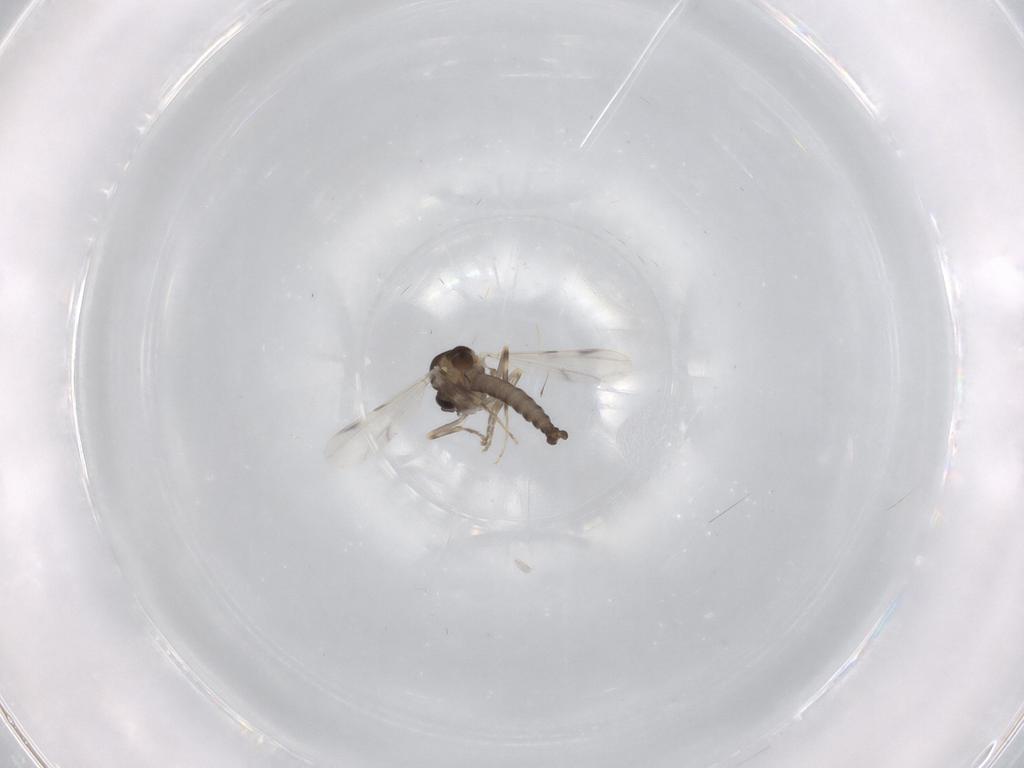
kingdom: Animalia
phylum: Arthropoda
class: Insecta
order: Diptera
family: Ceratopogonidae
